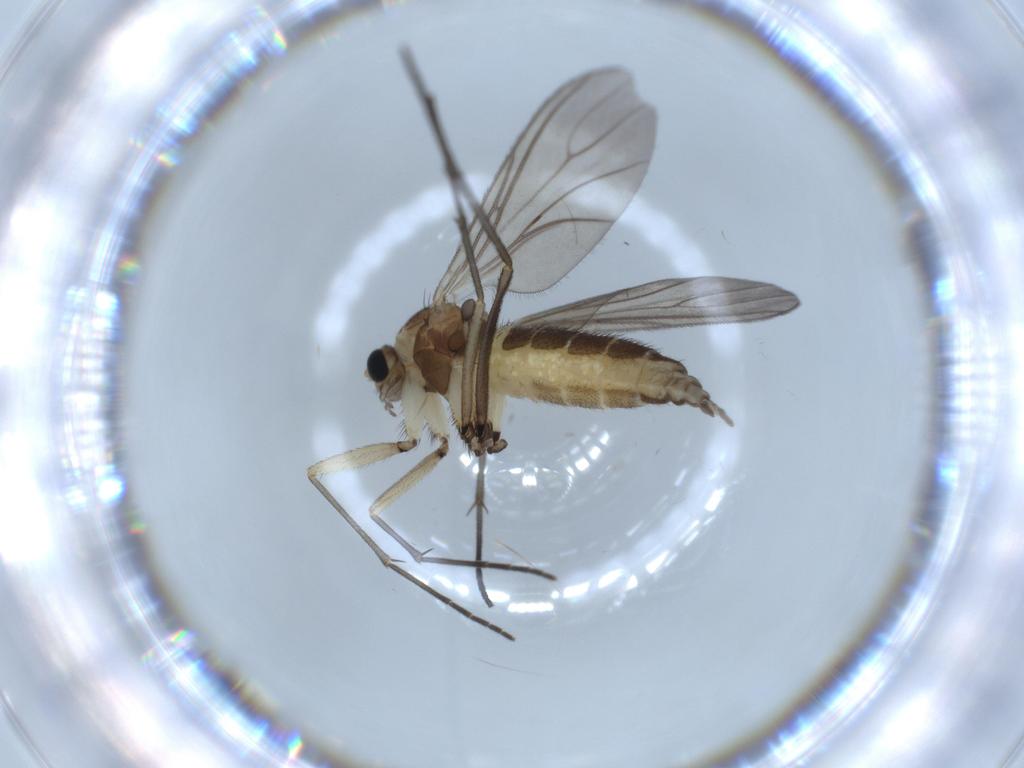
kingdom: Animalia
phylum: Arthropoda
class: Insecta
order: Diptera
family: Sciaridae
